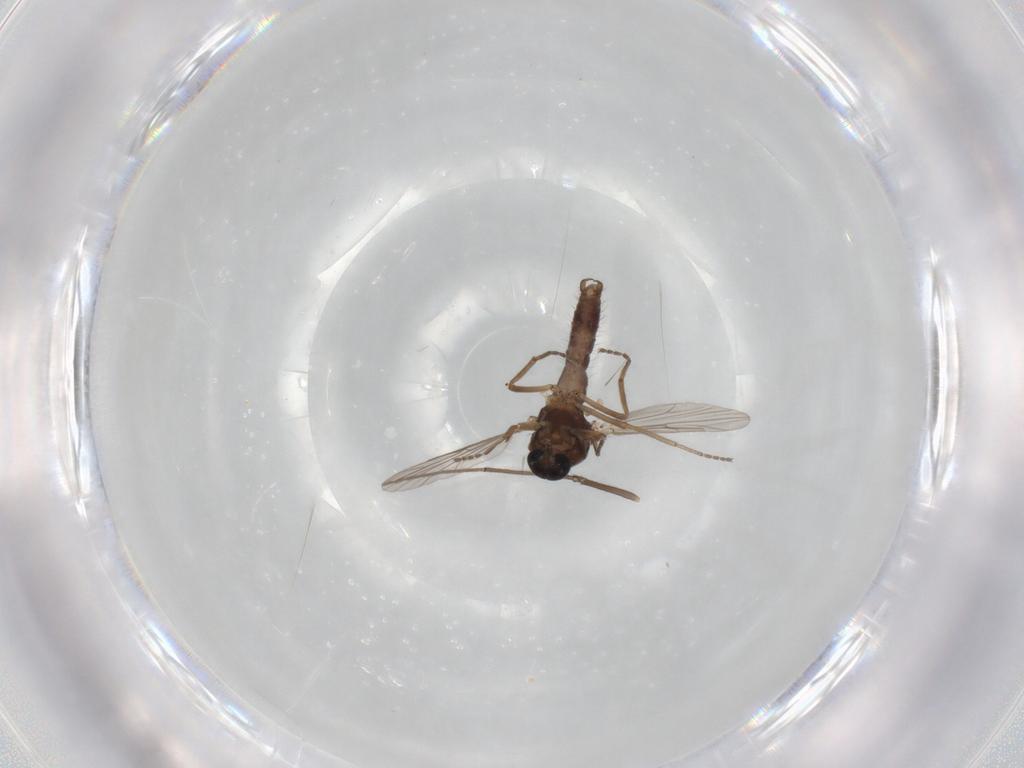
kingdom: Animalia
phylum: Arthropoda
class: Insecta
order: Diptera
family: Ceratopogonidae
